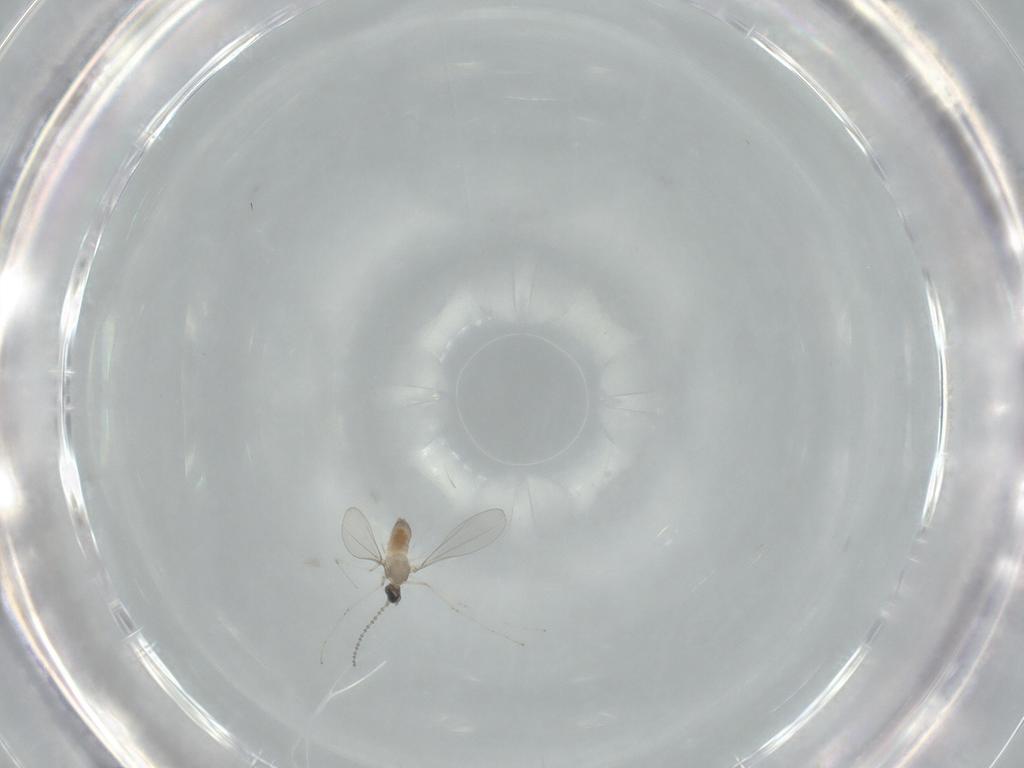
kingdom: Animalia
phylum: Arthropoda
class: Insecta
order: Diptera
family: Cecidomyiidae
